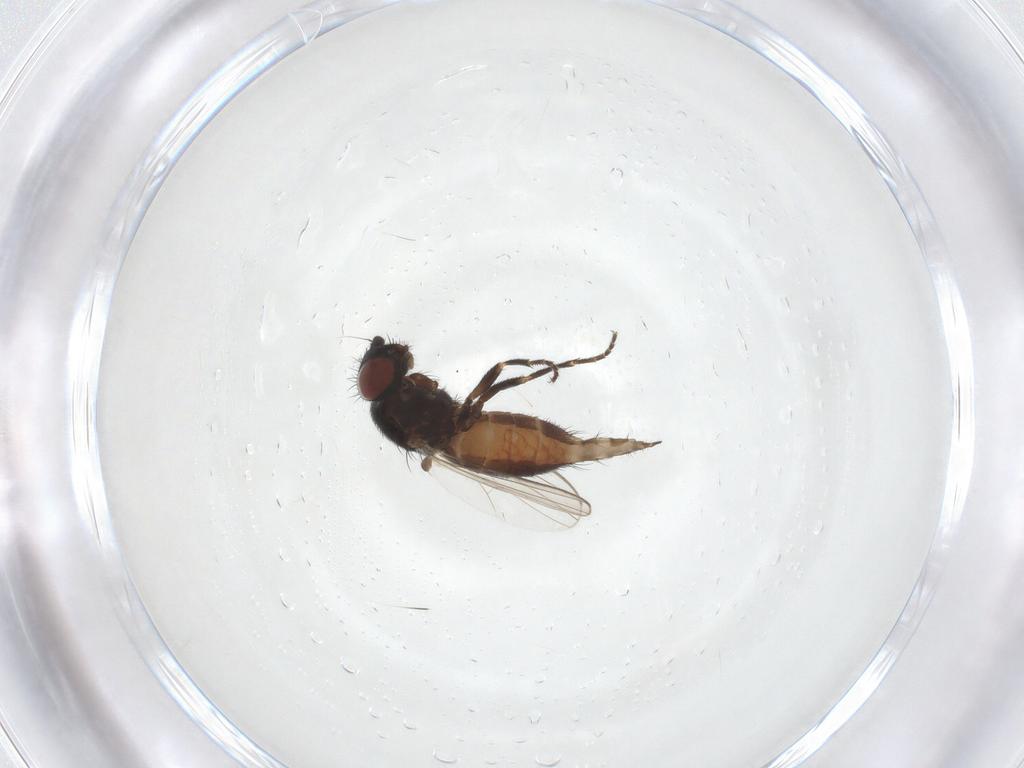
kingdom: Animalia
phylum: Arthropoda
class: Insecta
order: Diptera
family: Milichiidae
